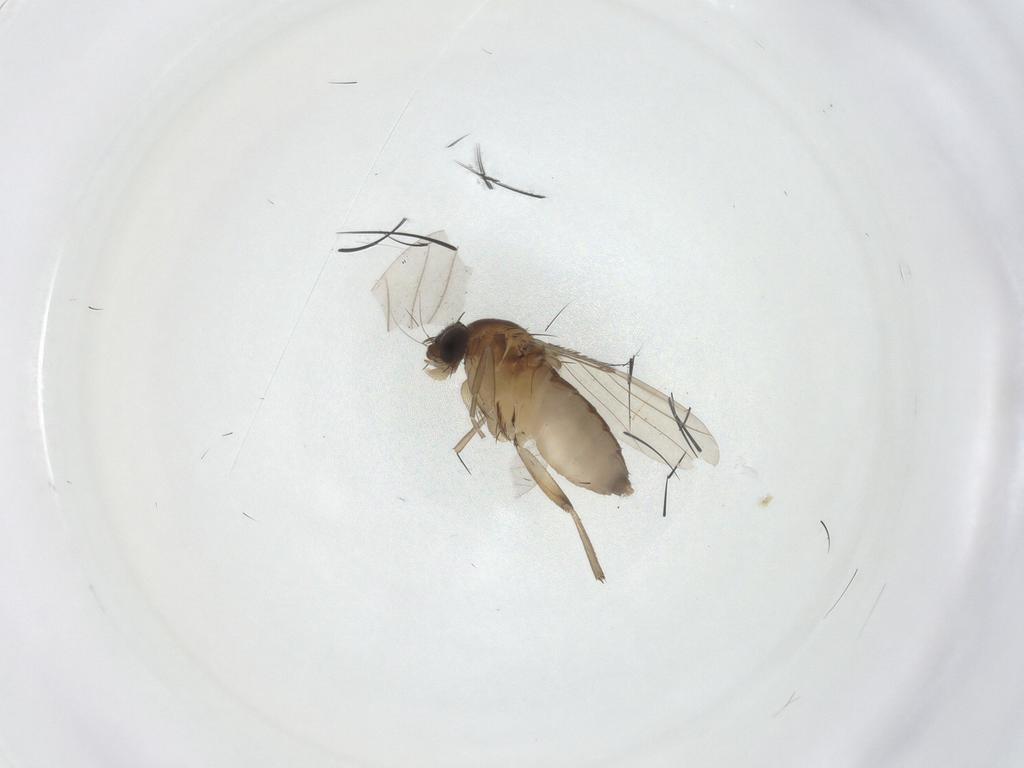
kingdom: Animalia
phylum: Arthropoda
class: Insecta
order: Diptera
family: Phoridae
